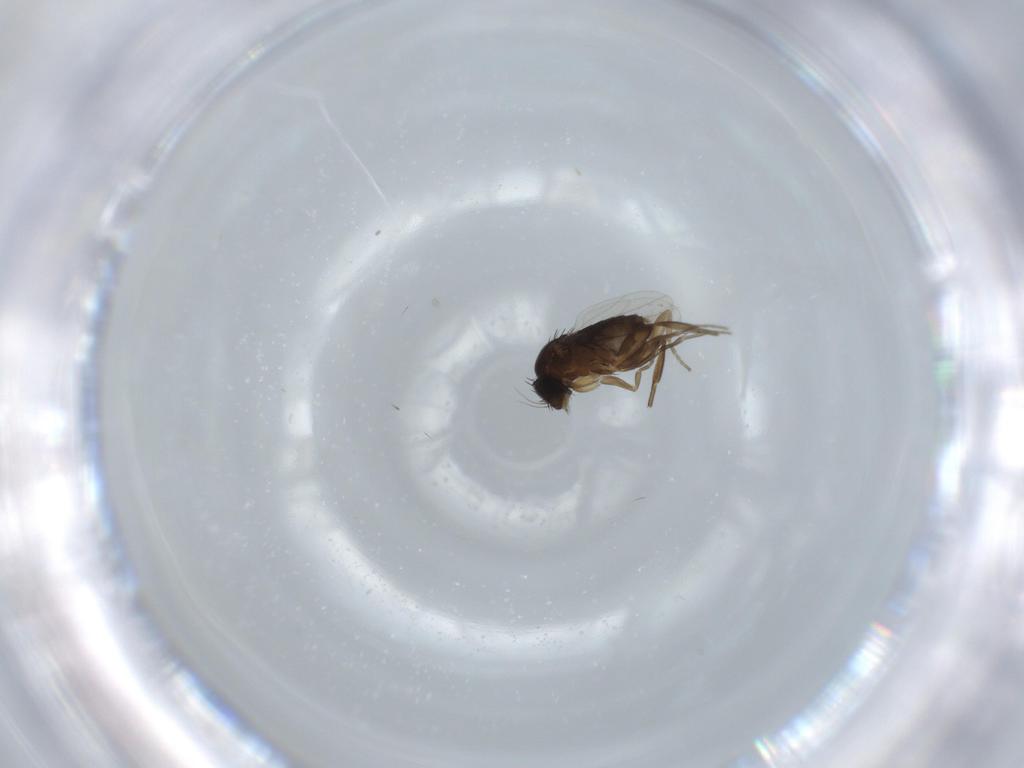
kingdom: Animalia
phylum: Arthropoda
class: Insecta
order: Diptera
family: Phoridae
